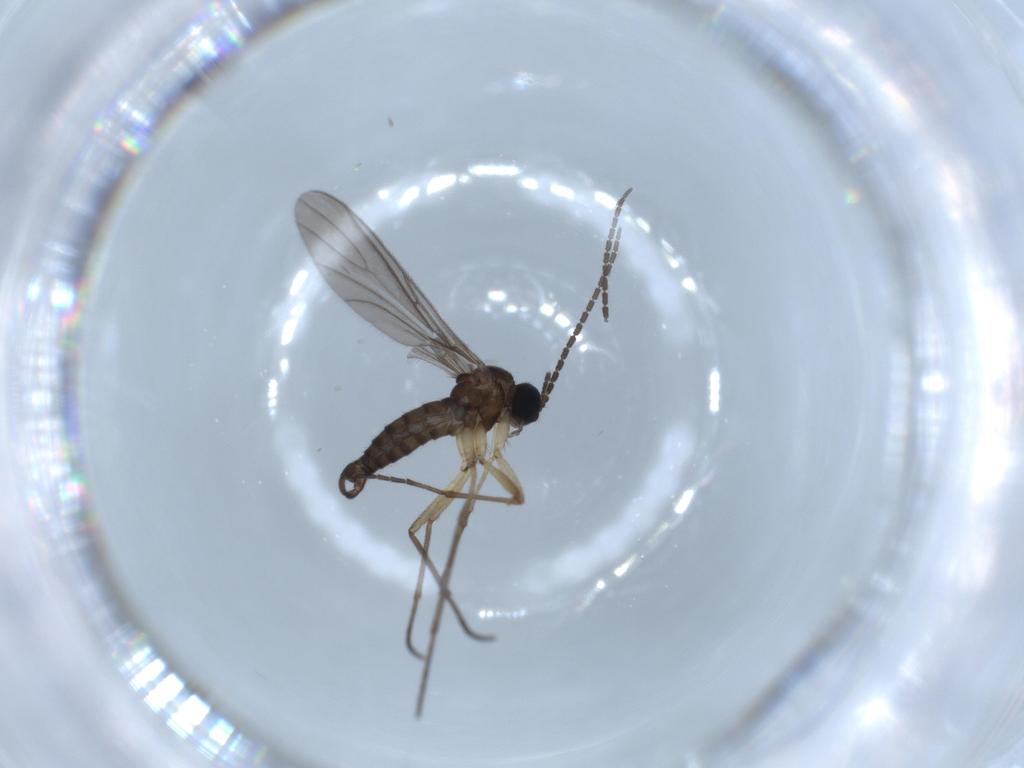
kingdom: Animalia
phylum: Arthropoda
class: Insecta
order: Diptera
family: Sciaridae
